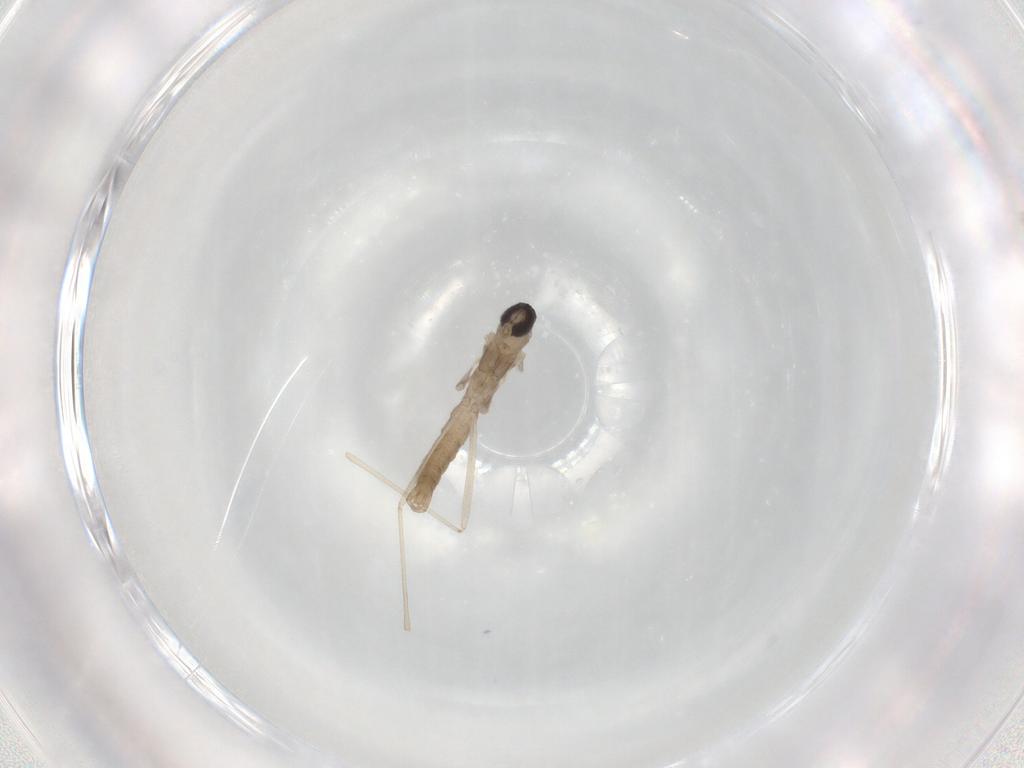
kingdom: Animalia
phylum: Arthropoda
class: Insecta
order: Diptera
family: Cecidomyiidae
